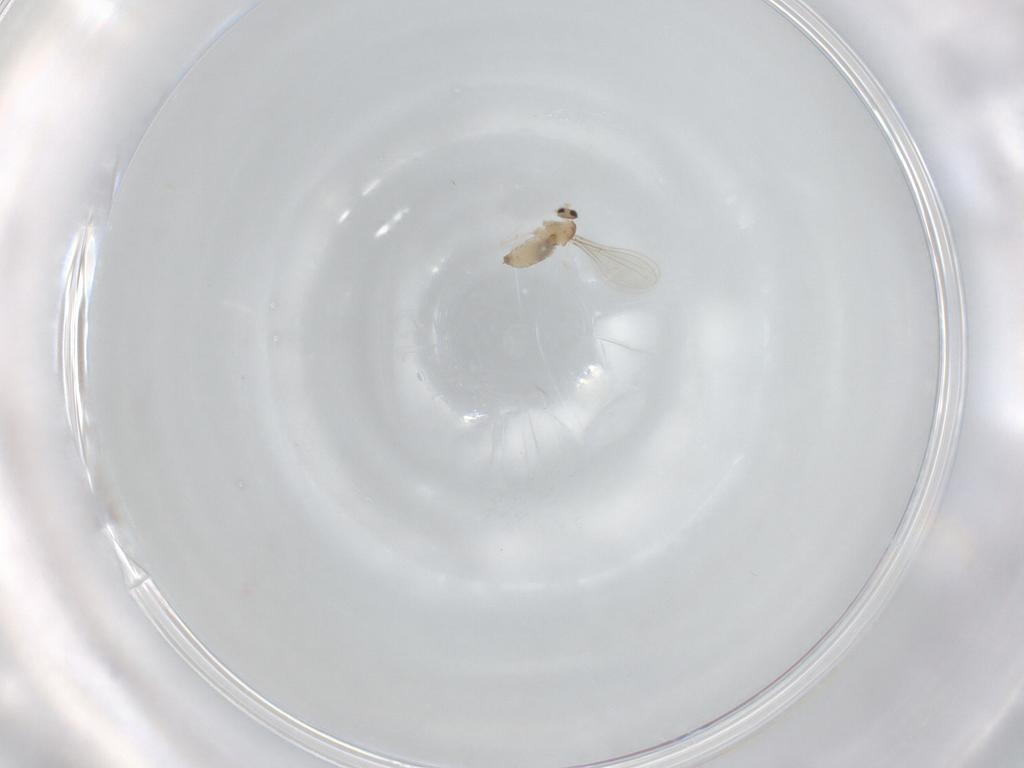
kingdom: Animalia
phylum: Arthropoda
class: Insecta
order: Diptera
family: Cecidomyiidae
